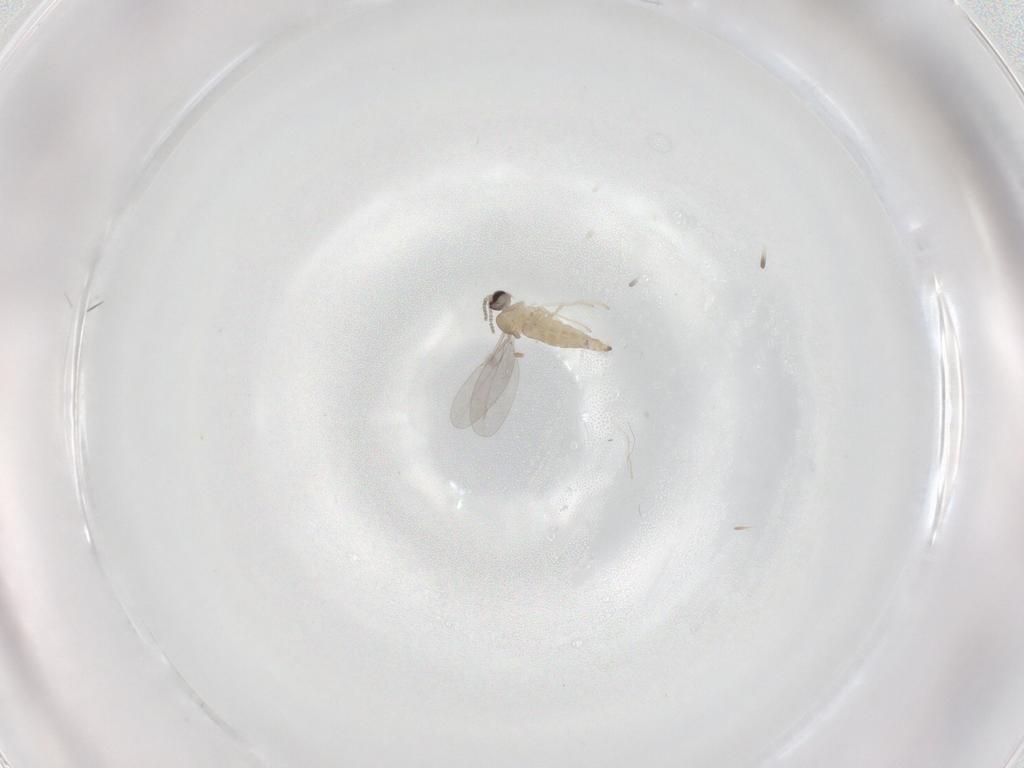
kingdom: Animalia
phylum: Arthropoda
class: Insecta
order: Diptera
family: Cecidomyiidae
